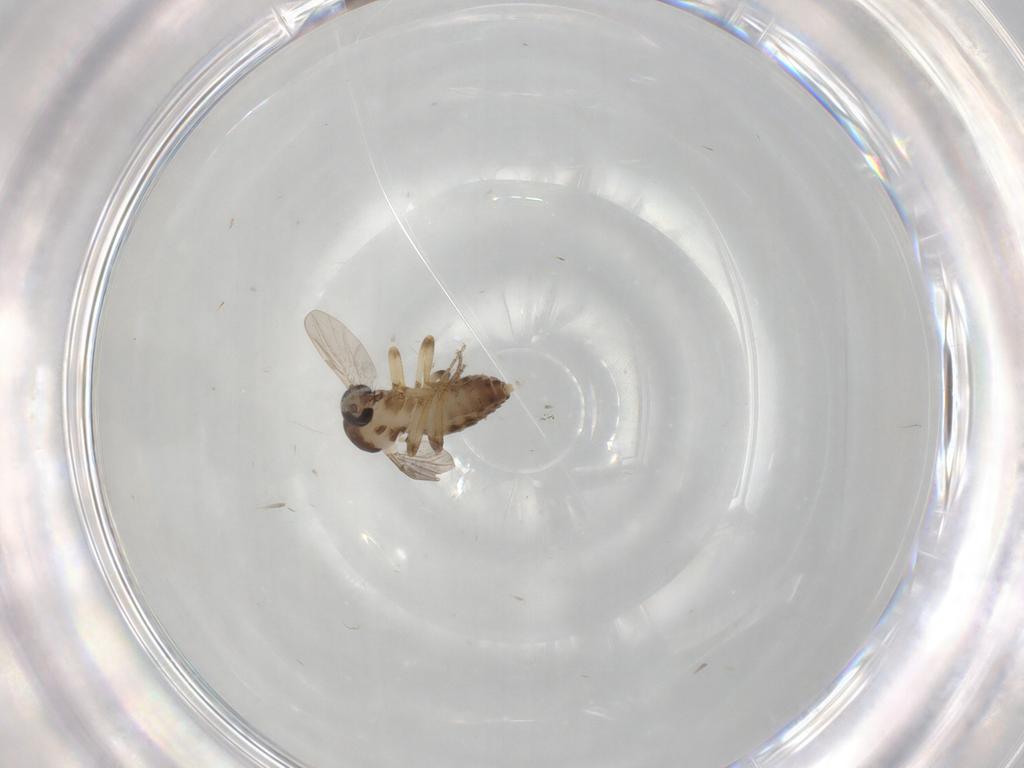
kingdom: Animalia
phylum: Arthropoda
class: Insecta
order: Diptera
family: Ceratopogonidae
